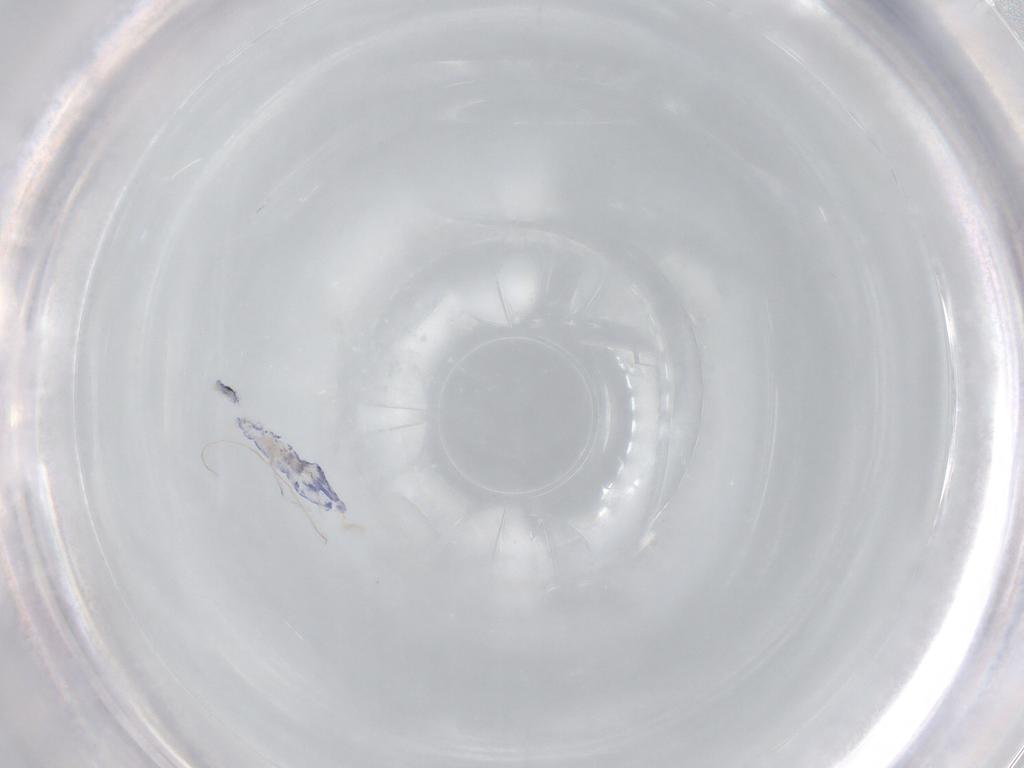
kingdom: Animalia
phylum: Arthropoda
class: Collembola
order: Entomobryomorpha
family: Entomobryidae
